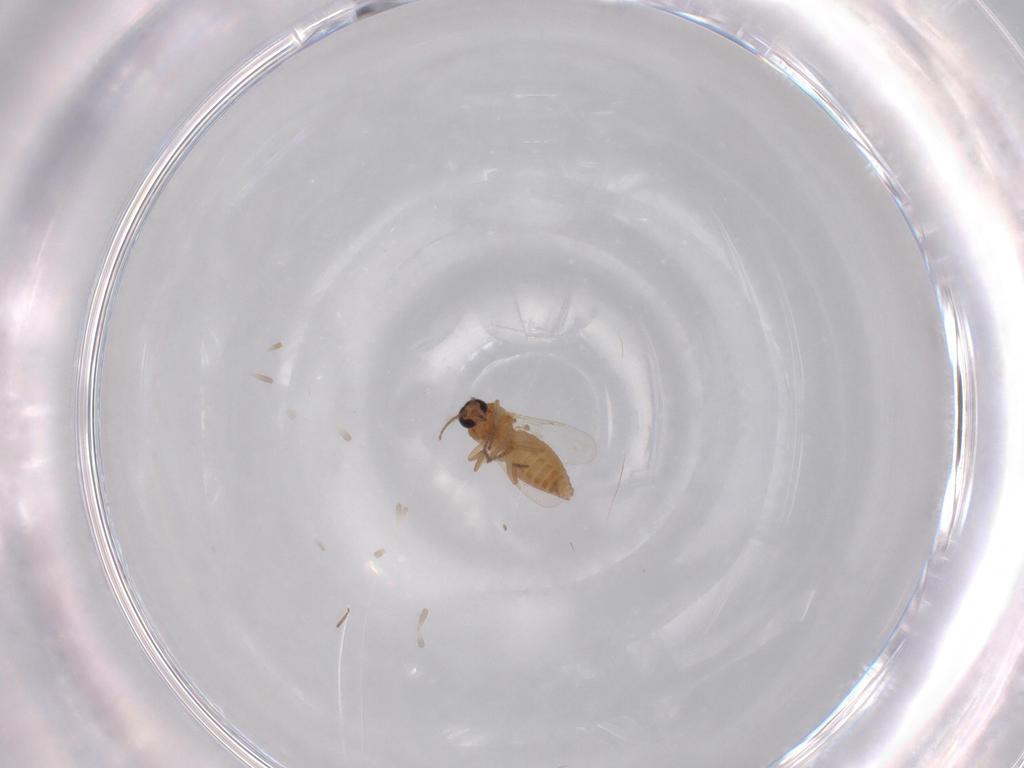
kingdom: Animalia
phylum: Arthropoda
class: Insecta
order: Diptera
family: Ceratopogonidae
